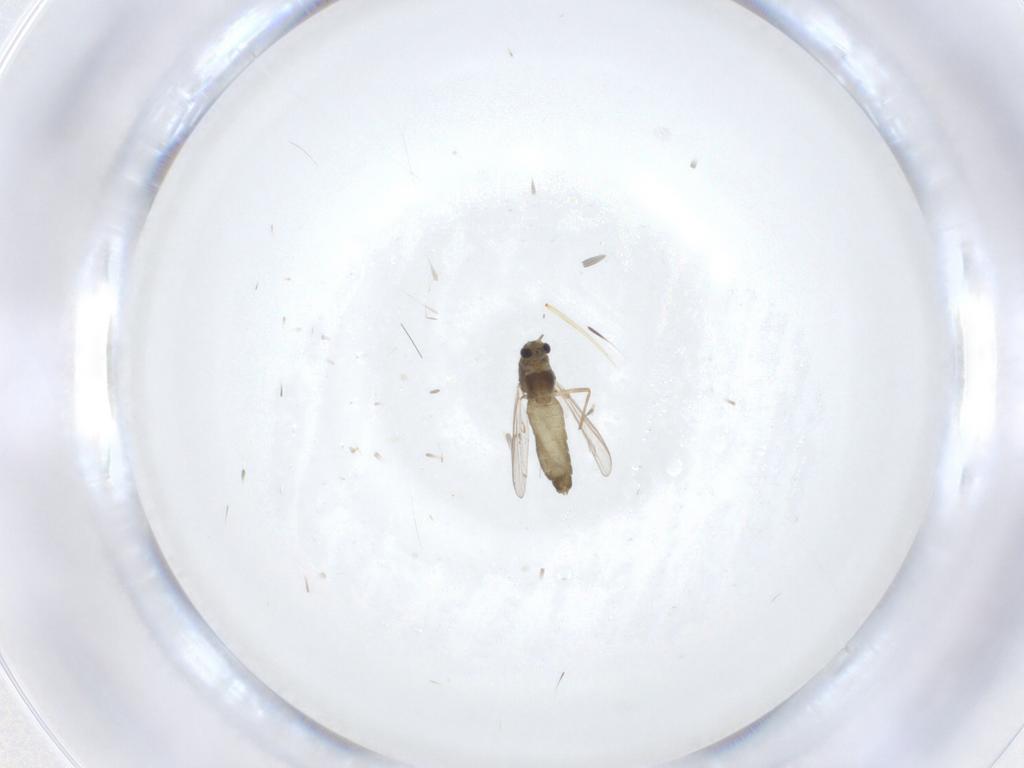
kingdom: Animalia
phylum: Arthropoda
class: Insecta
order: Diptera
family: Chironomidae
